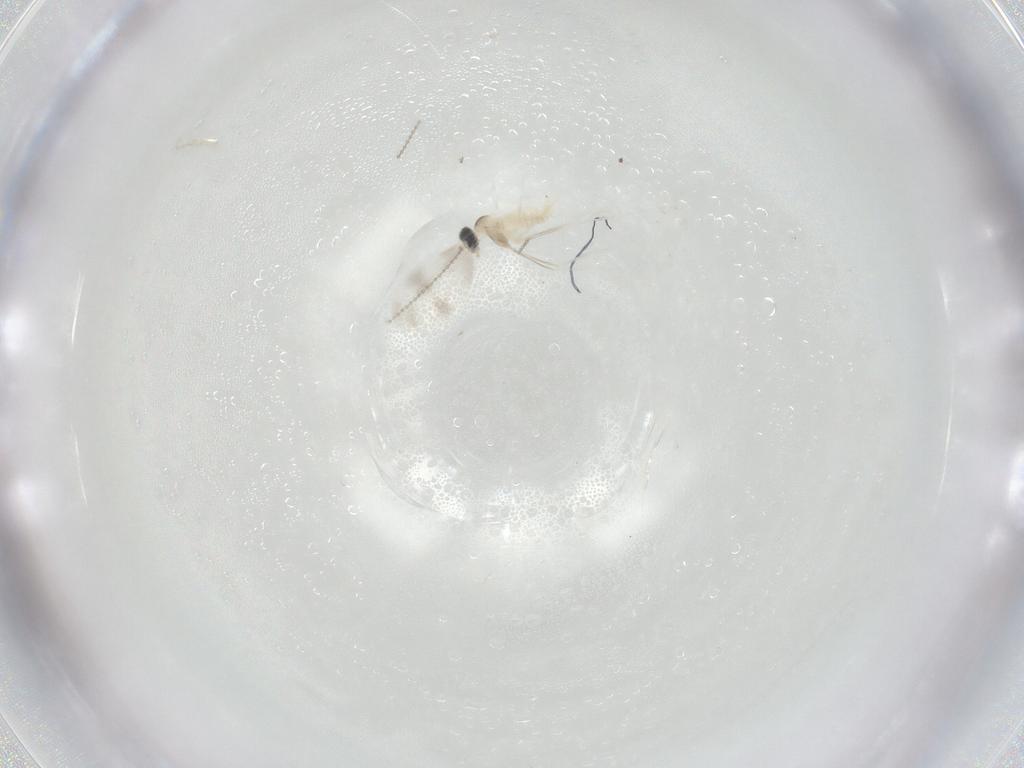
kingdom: Animalia
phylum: Arthropoda
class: Insecta
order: Diptera
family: Cecidomyiidae
